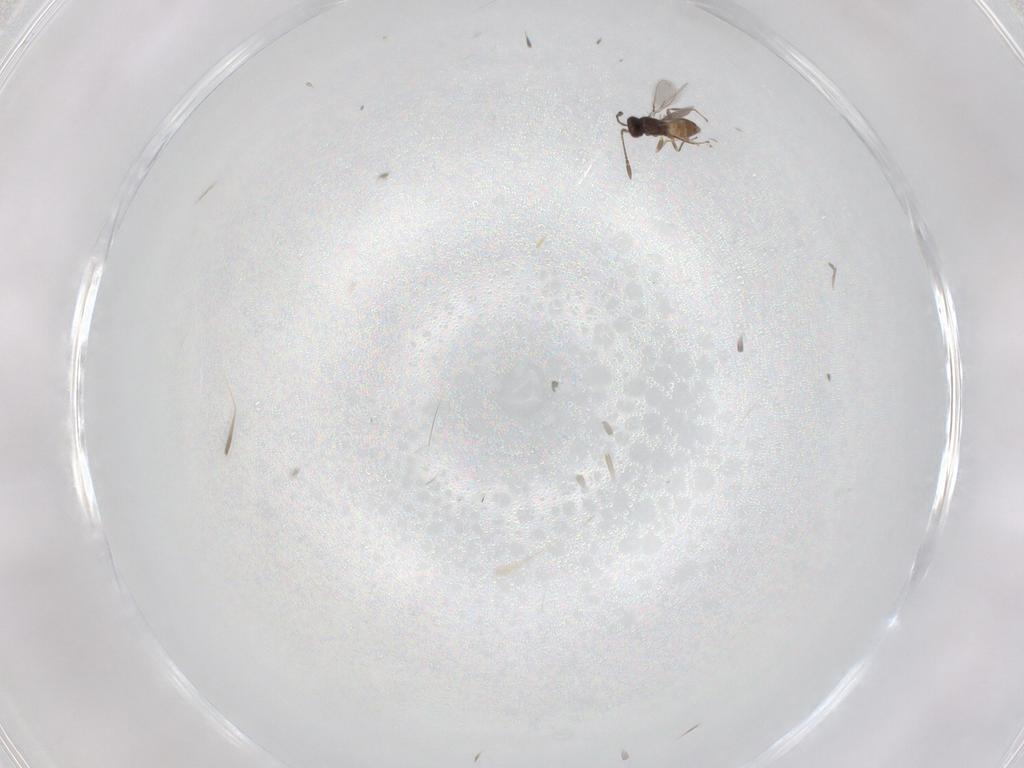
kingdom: Animalia
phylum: Arthropoda
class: Insecta
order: Hymenoptera
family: Mymaridae
